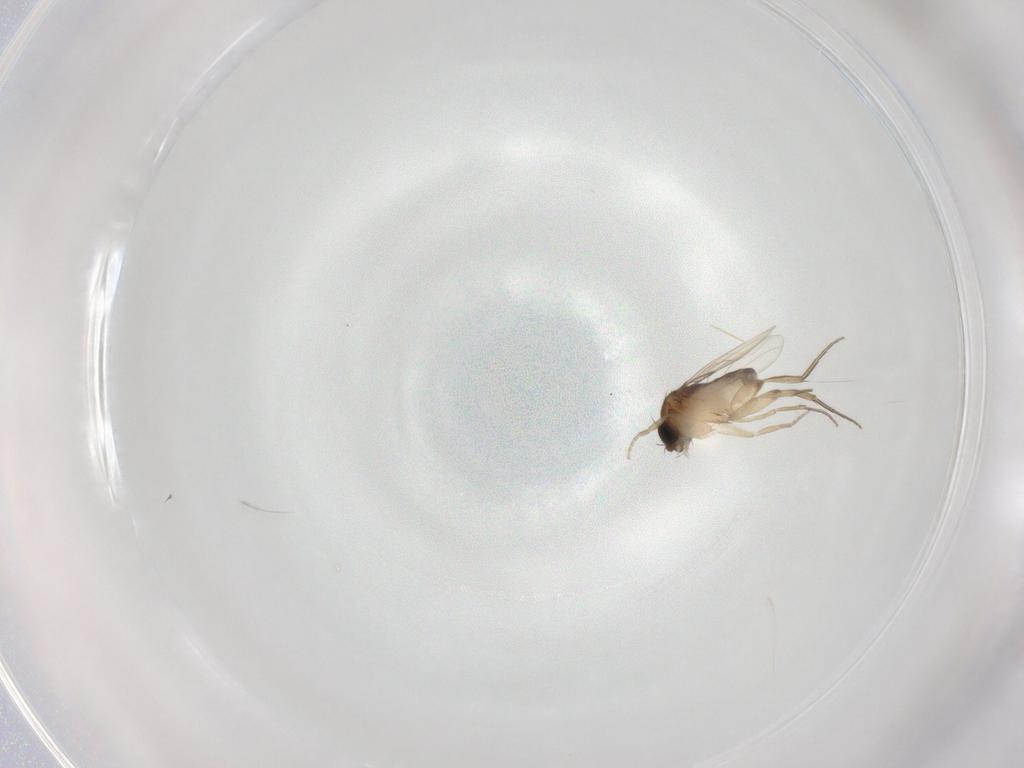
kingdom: Animalia
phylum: Arthropoda
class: Insecta
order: Diptera
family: Phoridae
